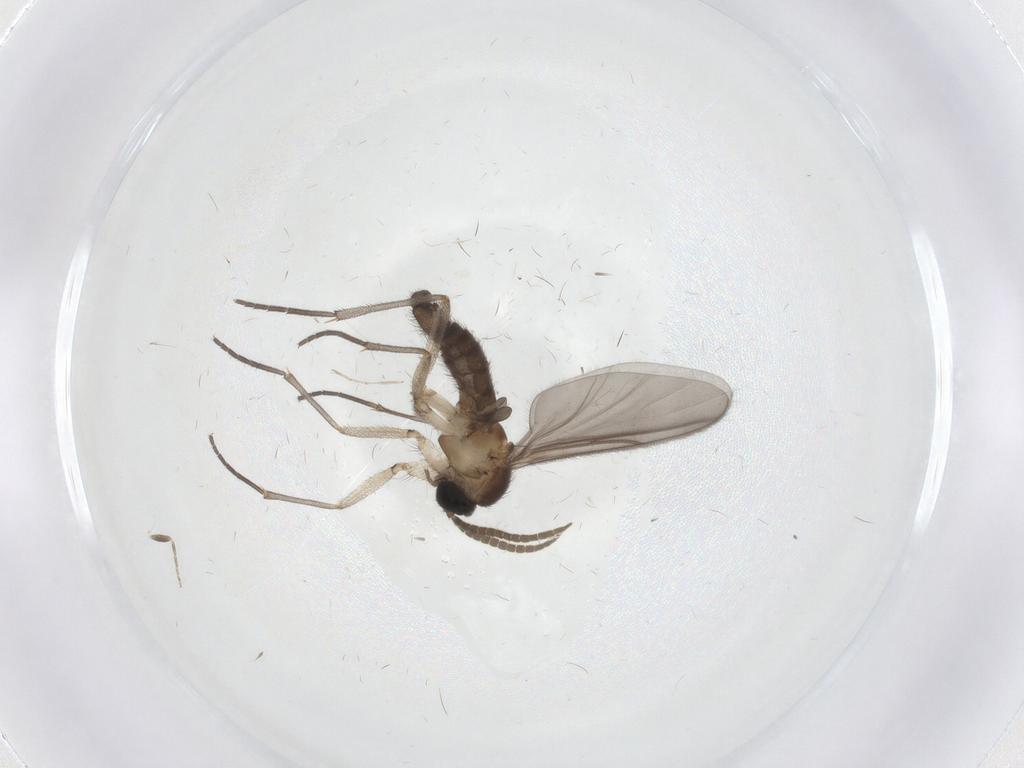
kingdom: Animalia
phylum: Arthropoda
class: Insecta
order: Diptera
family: Chironomidae
